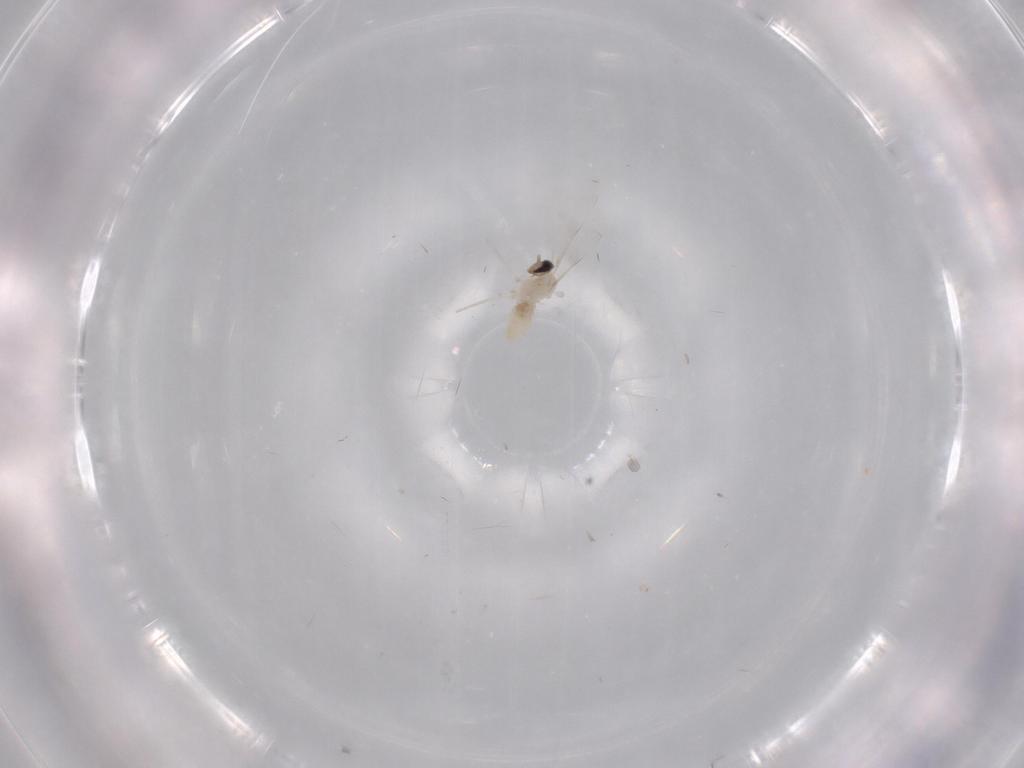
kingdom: Animalia
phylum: Arthropoda
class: Insecta
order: Diptera
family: Cecidomyiidae
